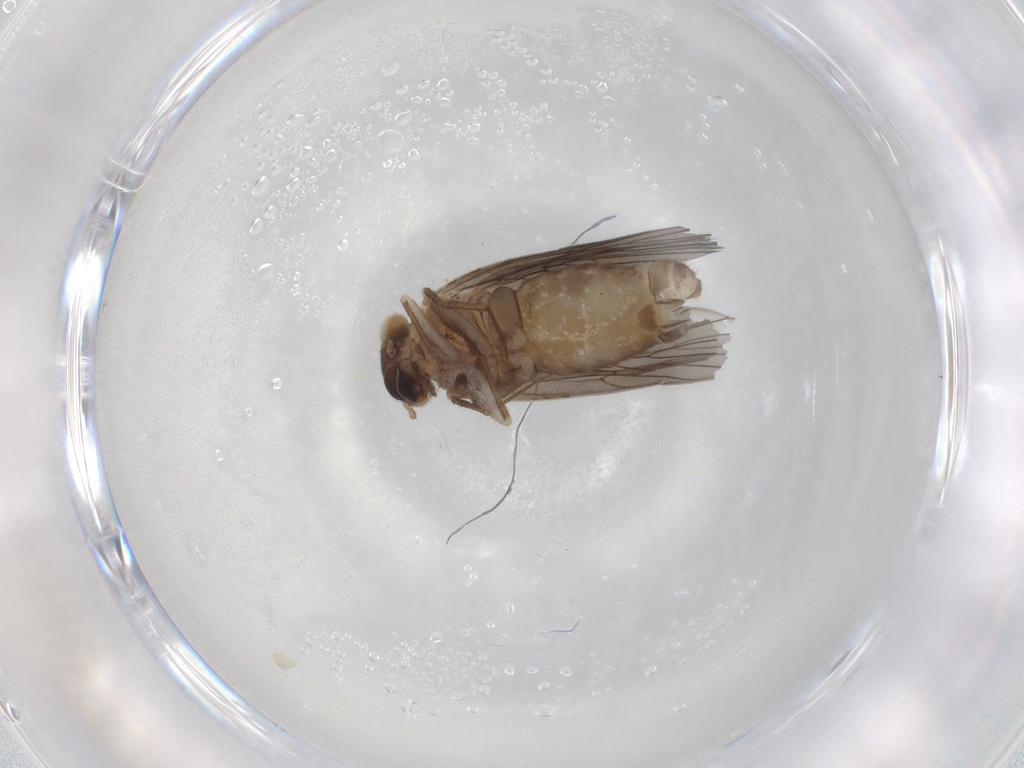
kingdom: Animalia
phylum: Arthropoda
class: Insecta
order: Psocodea
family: Lepidopsocidae
